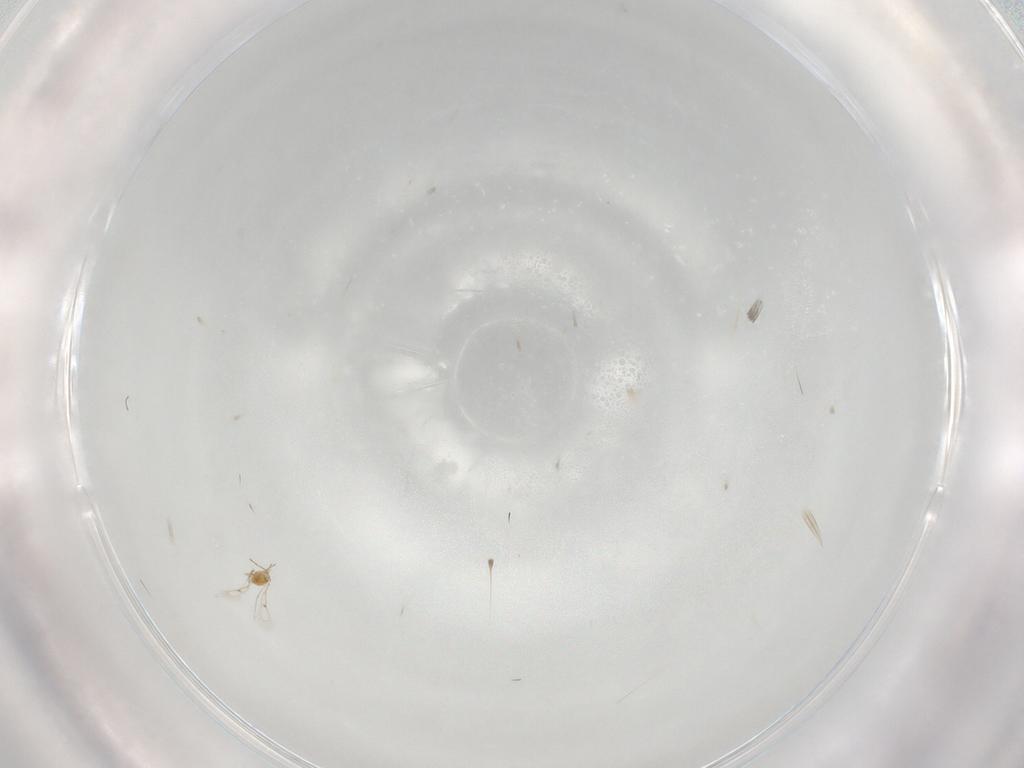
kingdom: Animalia
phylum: Arthropoda
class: Insecta
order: Hymenoptera
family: Trichogrammatidae
